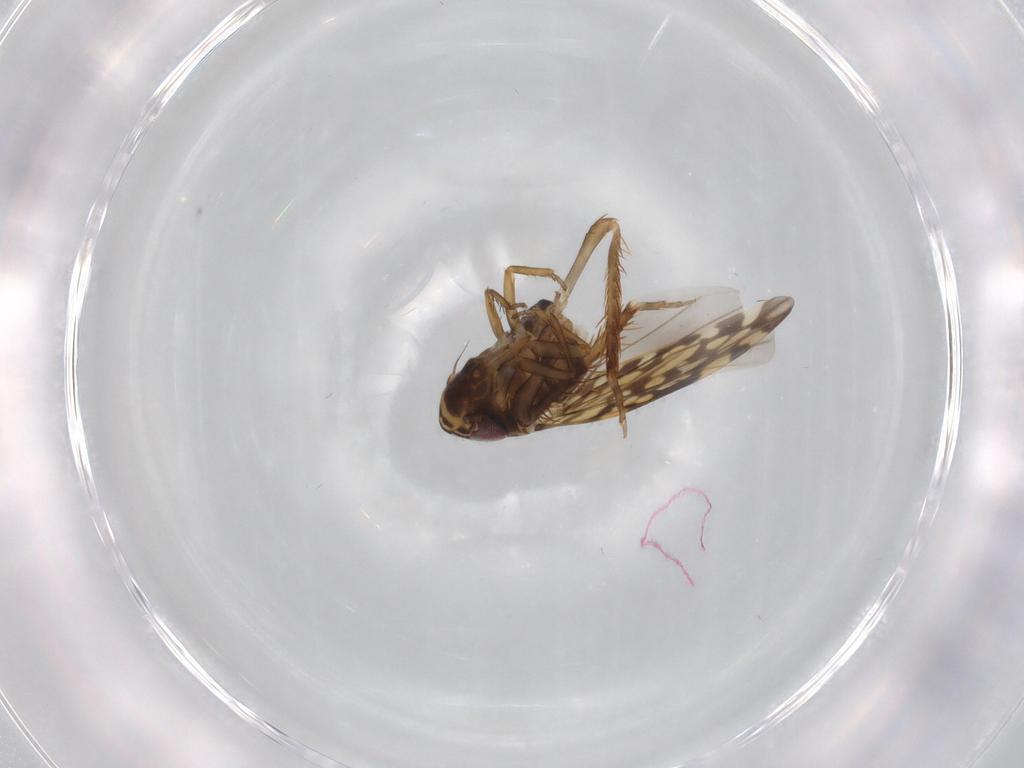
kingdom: Animalia
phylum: Arthropoda
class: Insecta
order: Hemiptera
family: Cicadellidae
